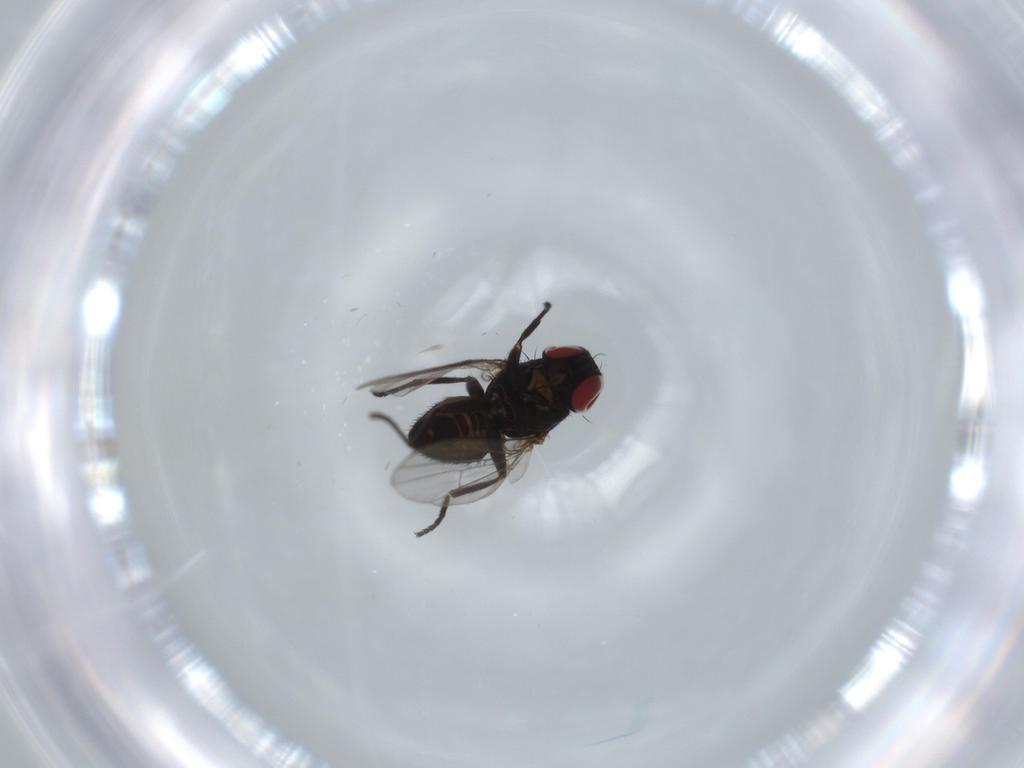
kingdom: Animalia
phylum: Arthropoda
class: Insecta
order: Diptera
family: Agromyzidae
